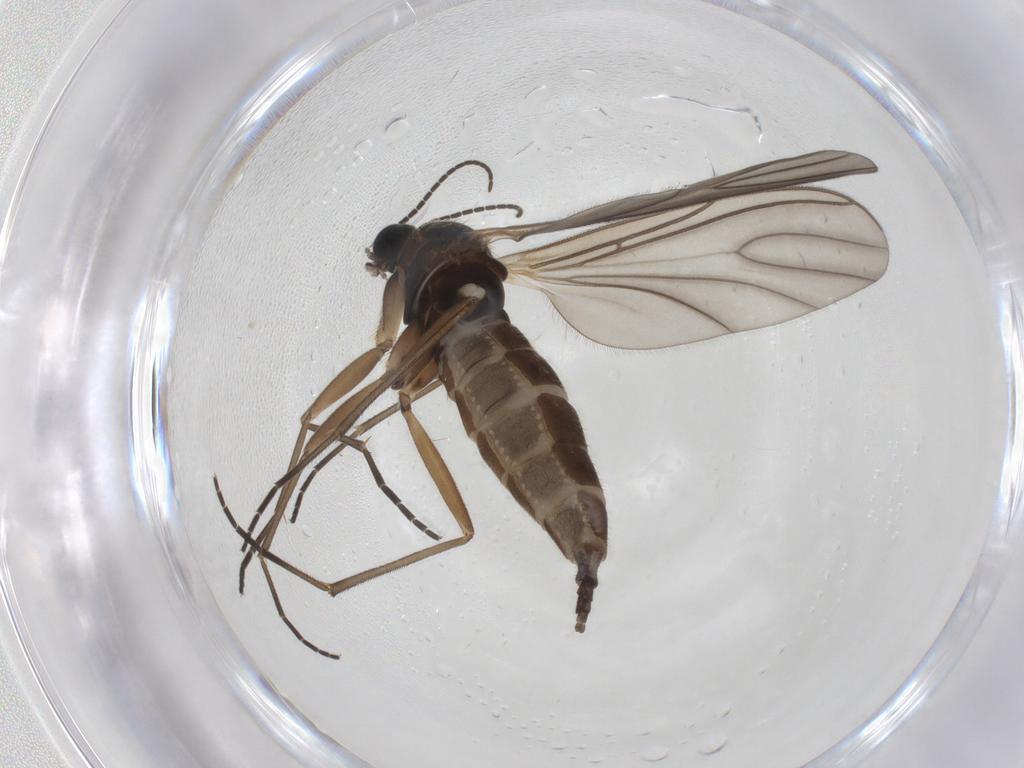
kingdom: Animalia
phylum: Arthropoda
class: Insecta
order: Diptera
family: Sciaridae
